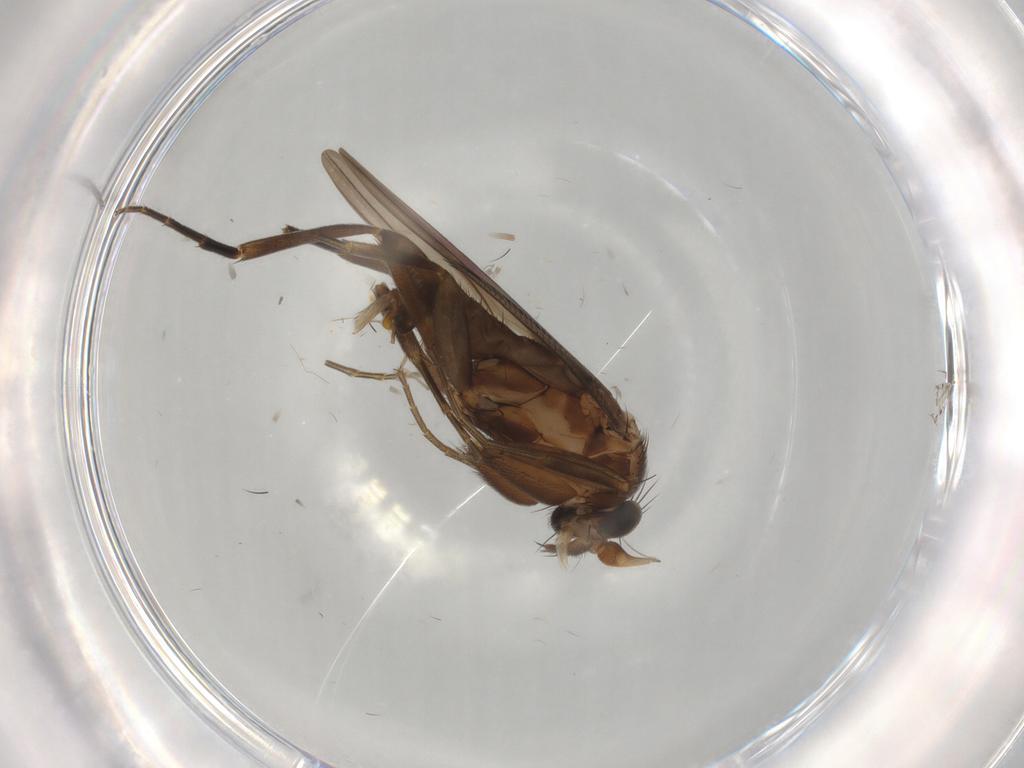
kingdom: Animalia
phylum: Arthropoda
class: Insecta
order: Diptera
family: Phoridae
